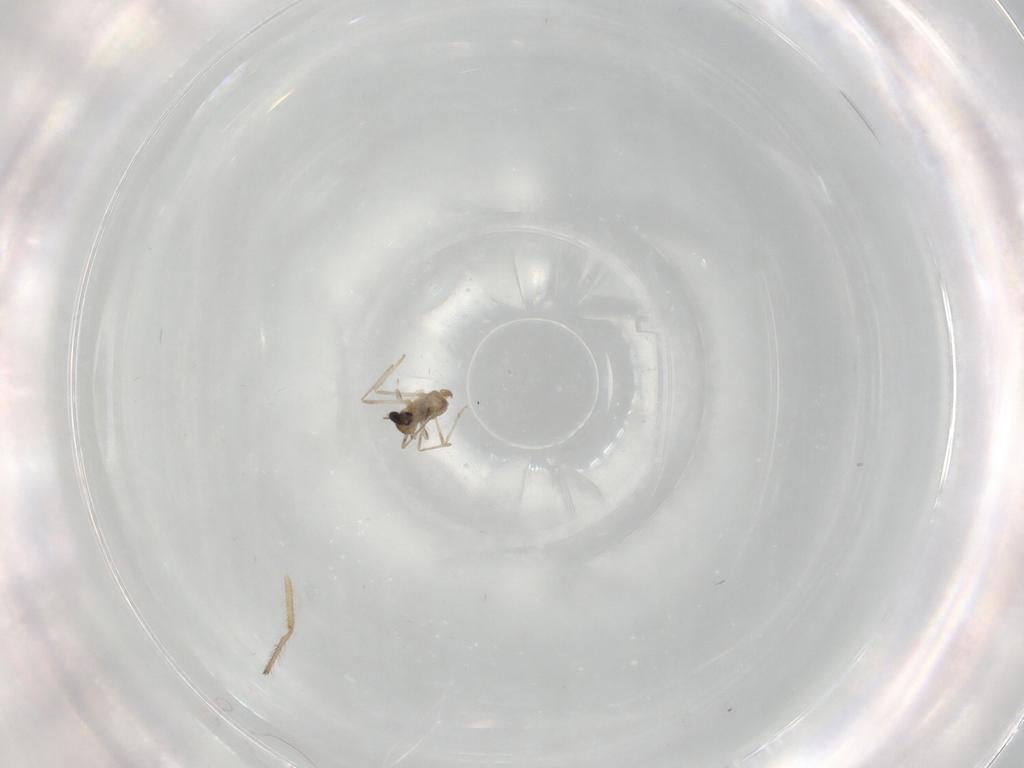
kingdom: Animalia
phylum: Arthropoda
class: Insecta
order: Diptera
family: Cecidomyiidae
